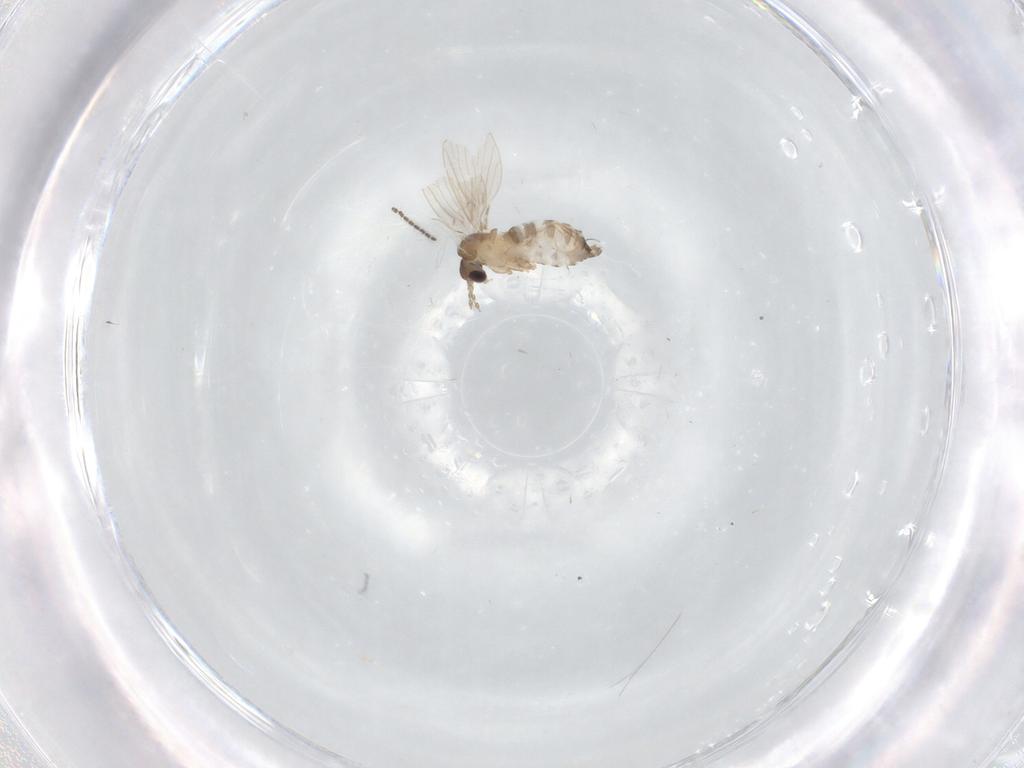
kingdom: Animalia
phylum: Arthropoda
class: Insecta
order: Diptera
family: Sciaridae
